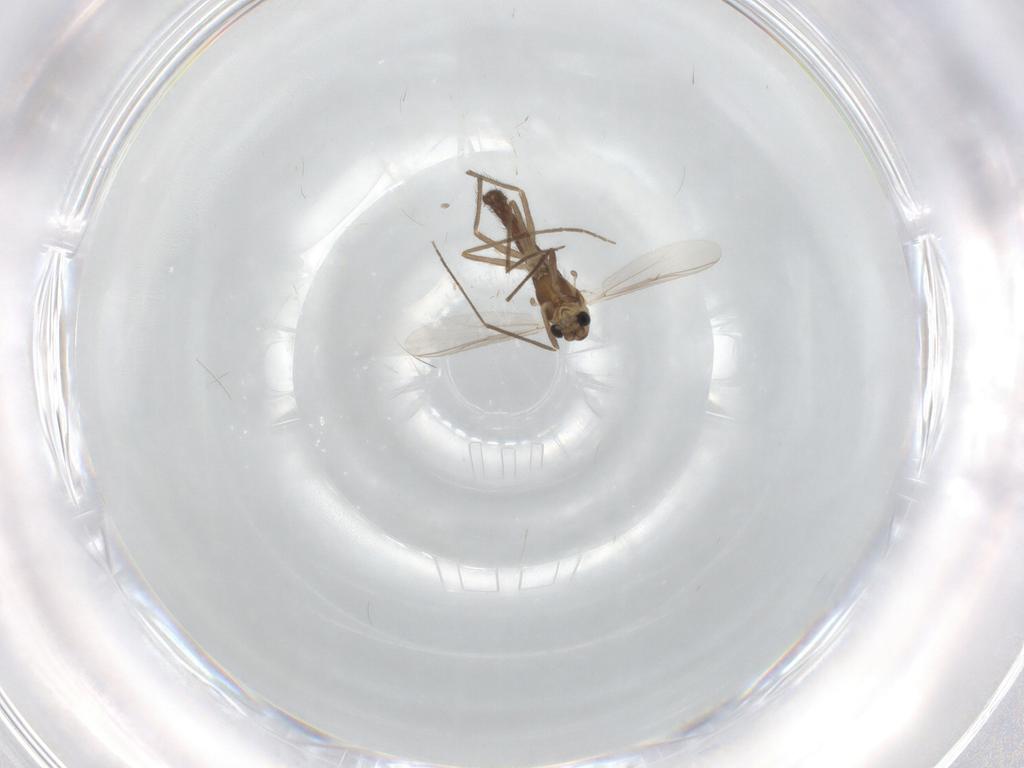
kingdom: Animalia
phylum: Arthropoda
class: Insecta
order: Diptera
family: Chironomidae
